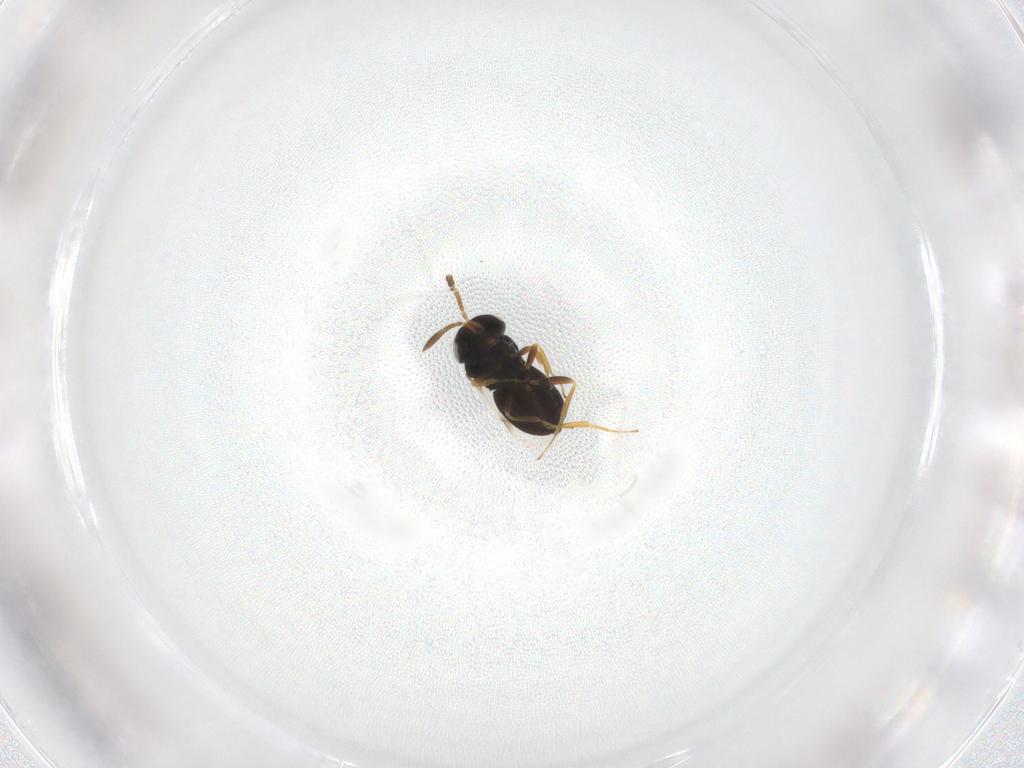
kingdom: Animalia
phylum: Arthropoda
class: Insecta
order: Hymenoptera
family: Scelionidae
